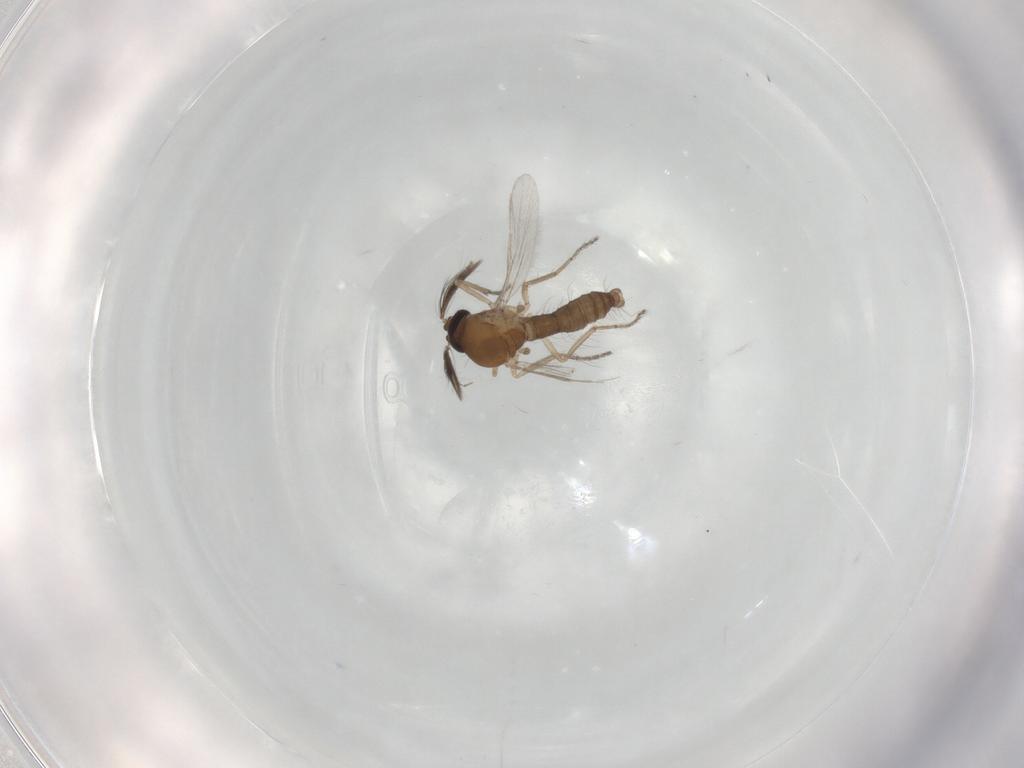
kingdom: Animalia
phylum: Arthropoda
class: Insecta
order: Diptera
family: Ceratopogonidae
